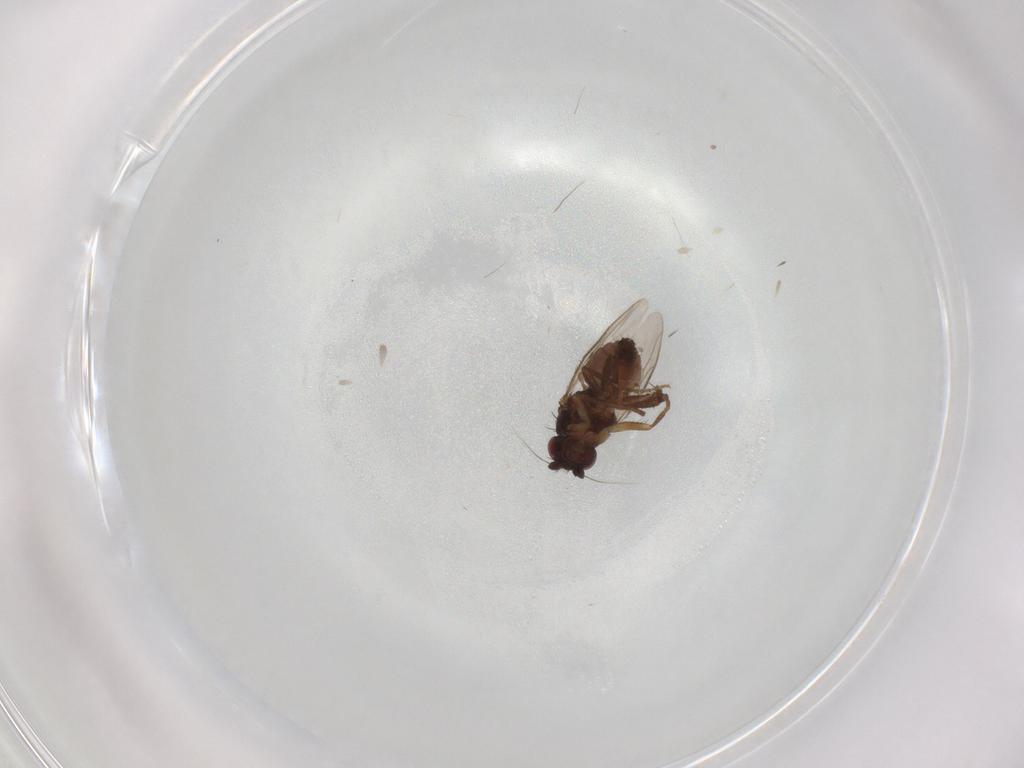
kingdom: Animalia
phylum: Arthropoda
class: Insecta
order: Diptera
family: Sphaeroceridae
